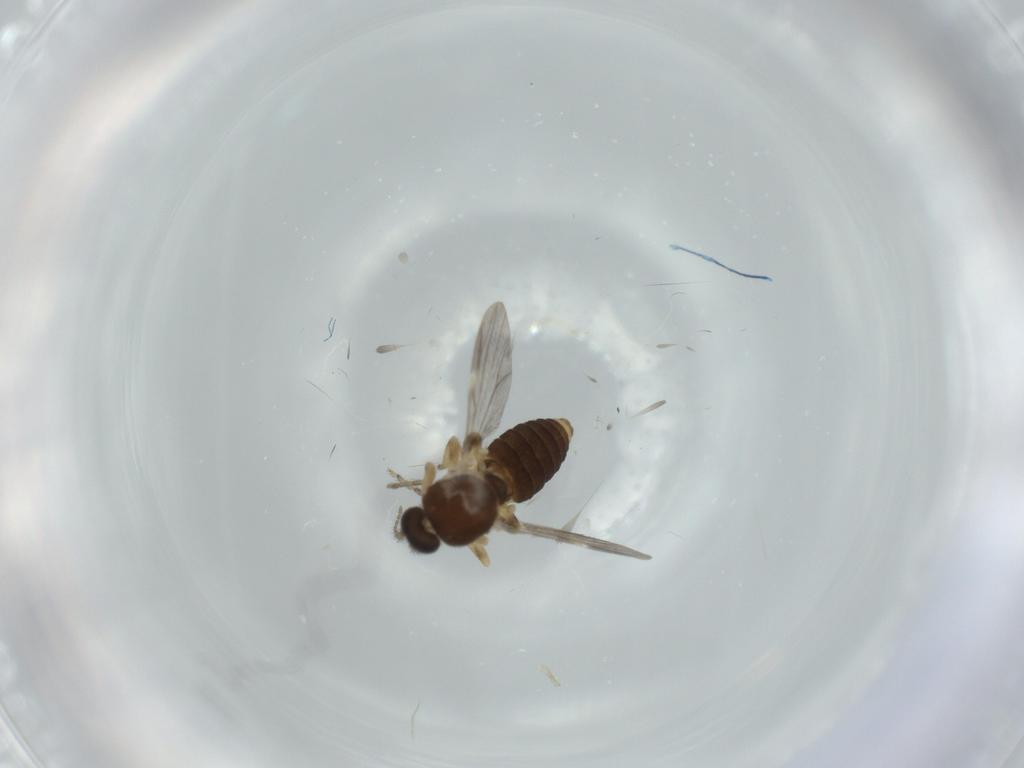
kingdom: Animalia
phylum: Arthropoda
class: Insecta
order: Diptera
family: Ceratopogonidae
